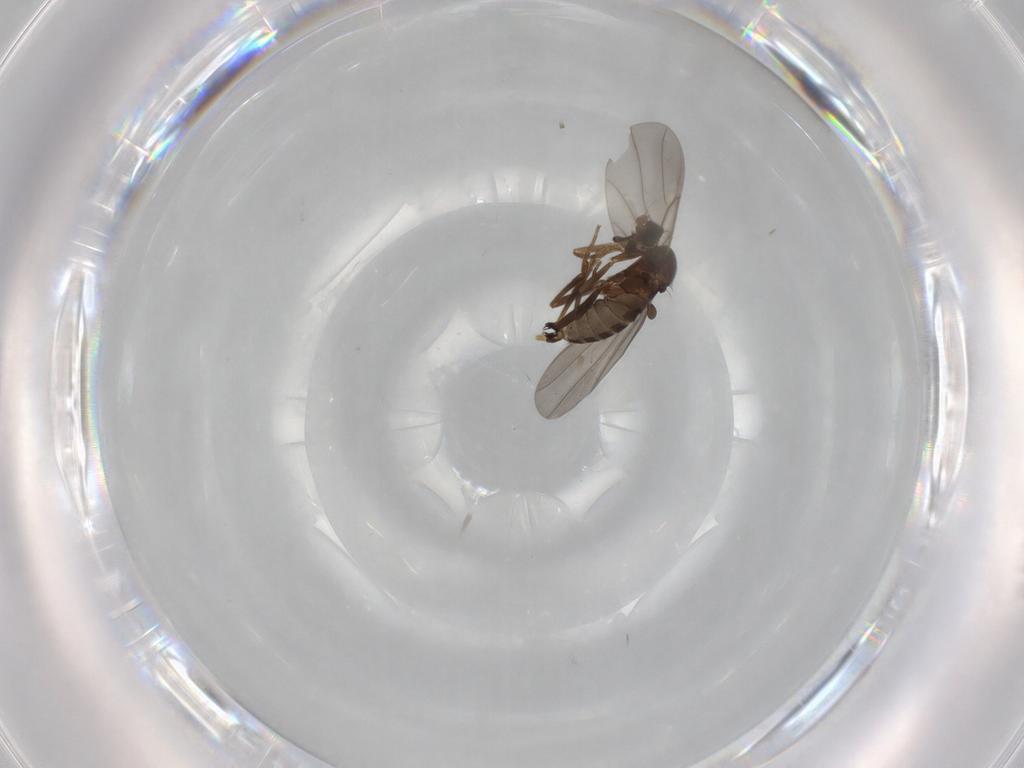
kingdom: Animalia
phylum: Arthropoda
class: Insecta
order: Diptera
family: Phoridae
